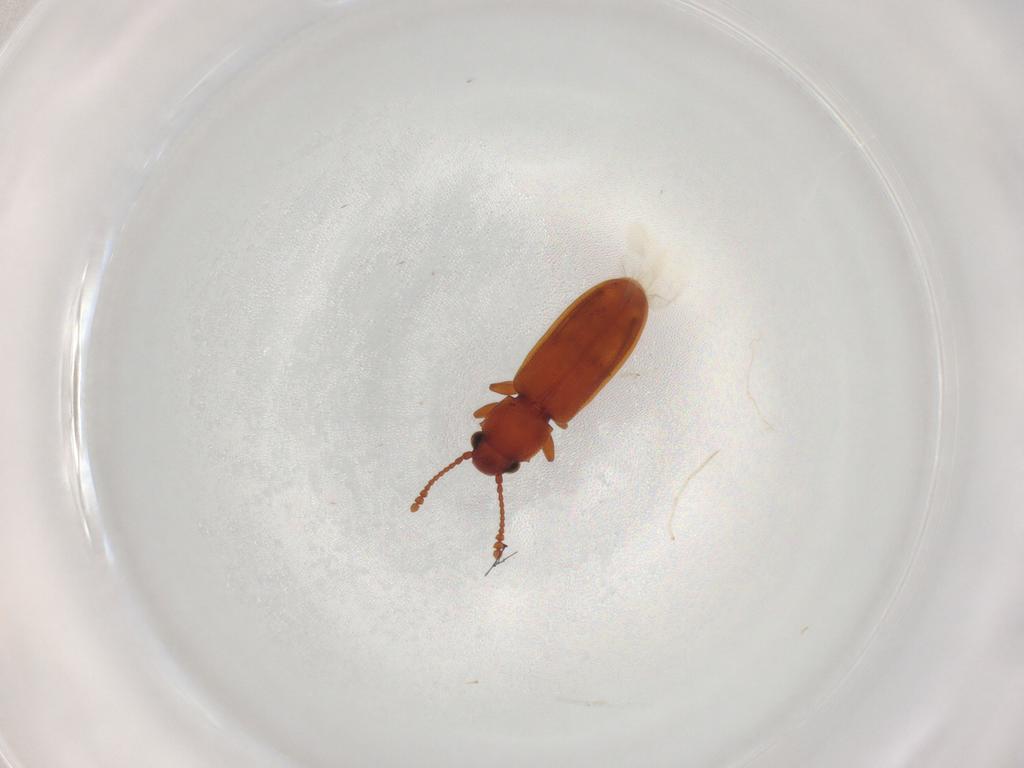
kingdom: Animalia
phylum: Arthropoda
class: Insecta
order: Coleoptera
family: Silvanidae
